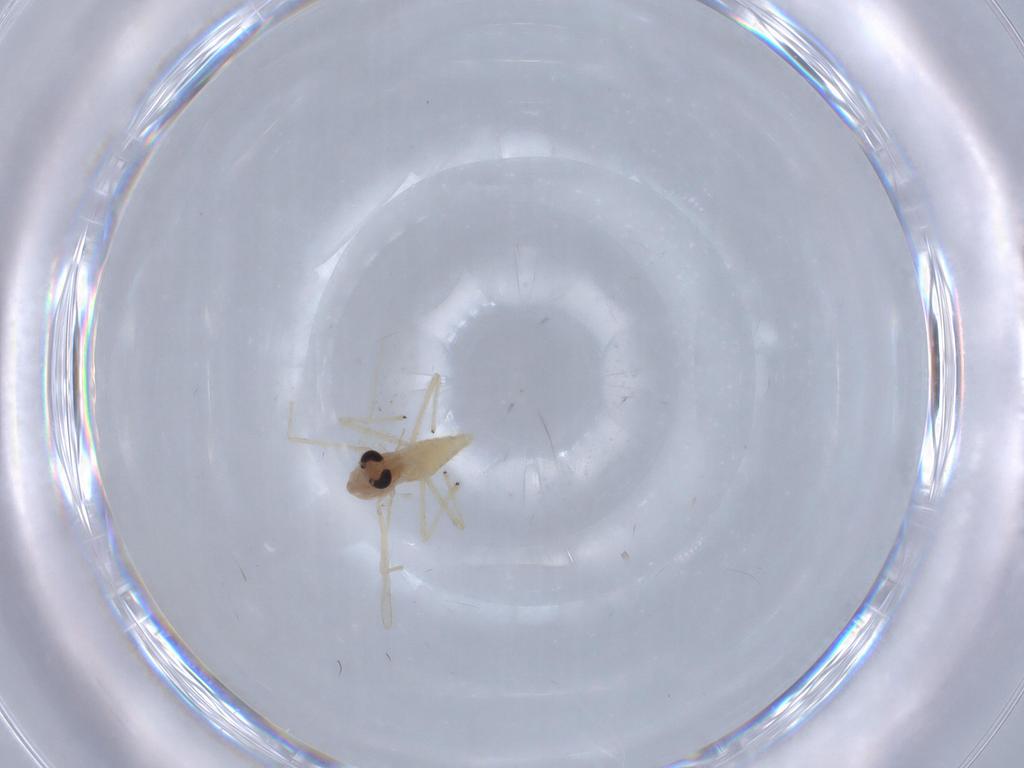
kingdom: Animalia
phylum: Arthropoda
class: Insecta
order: Diptera
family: Chironomidae
